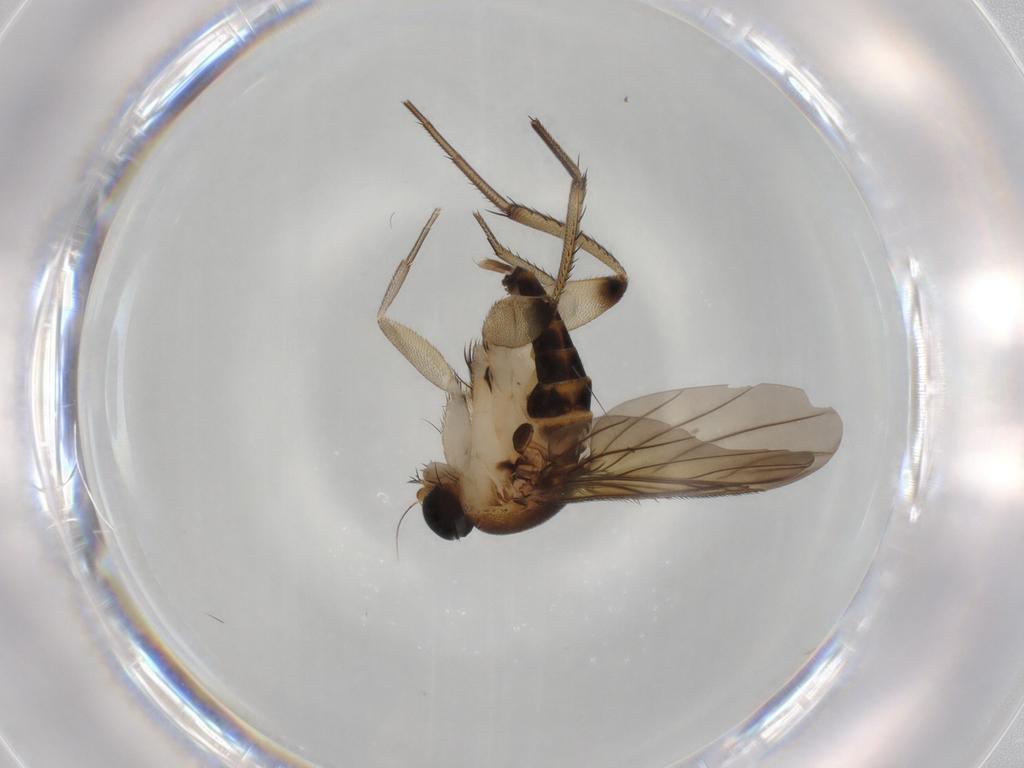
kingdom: Animalia
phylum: Arthropoda
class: Insecta
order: Diptera
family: Phoridae
